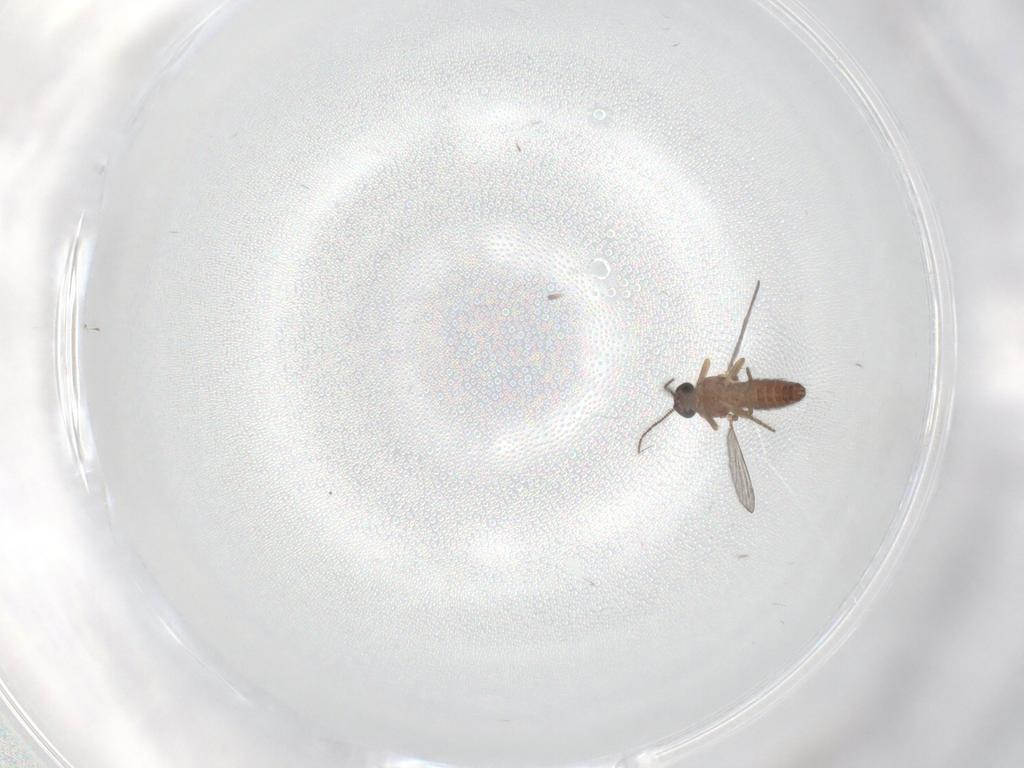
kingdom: Animalia
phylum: Arthropoda
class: Insecta
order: Diptera
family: Ceratopogonidae
